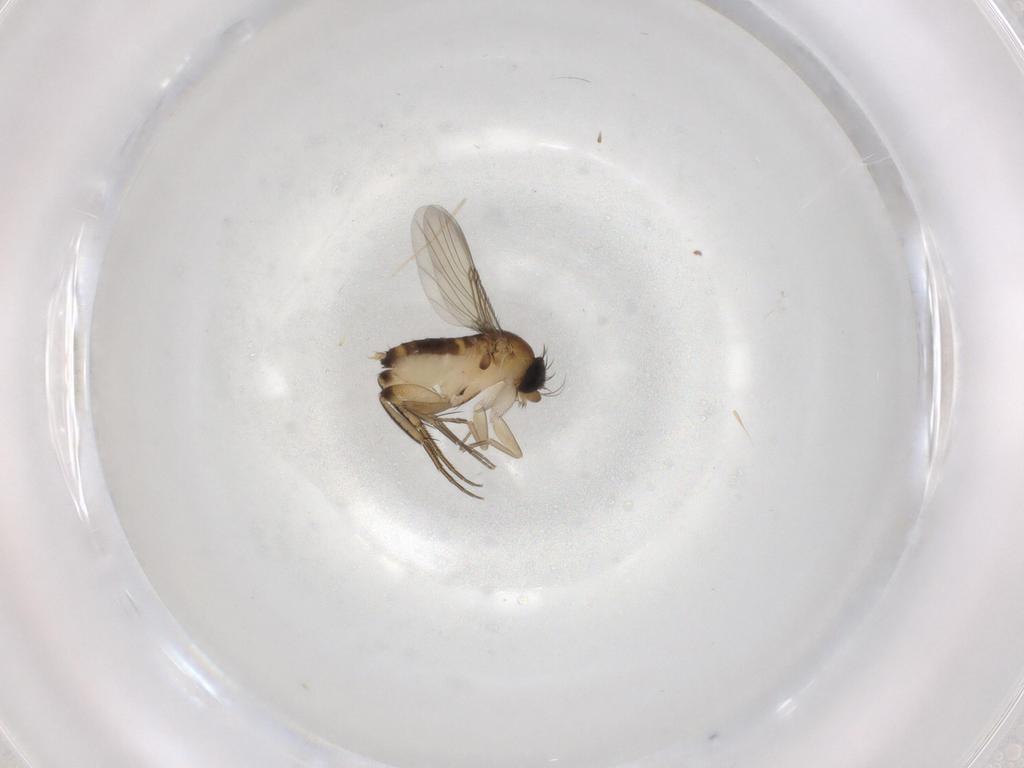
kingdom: Animalia
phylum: Arthropoda
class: Insecta
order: Diptera
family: Phoridae
